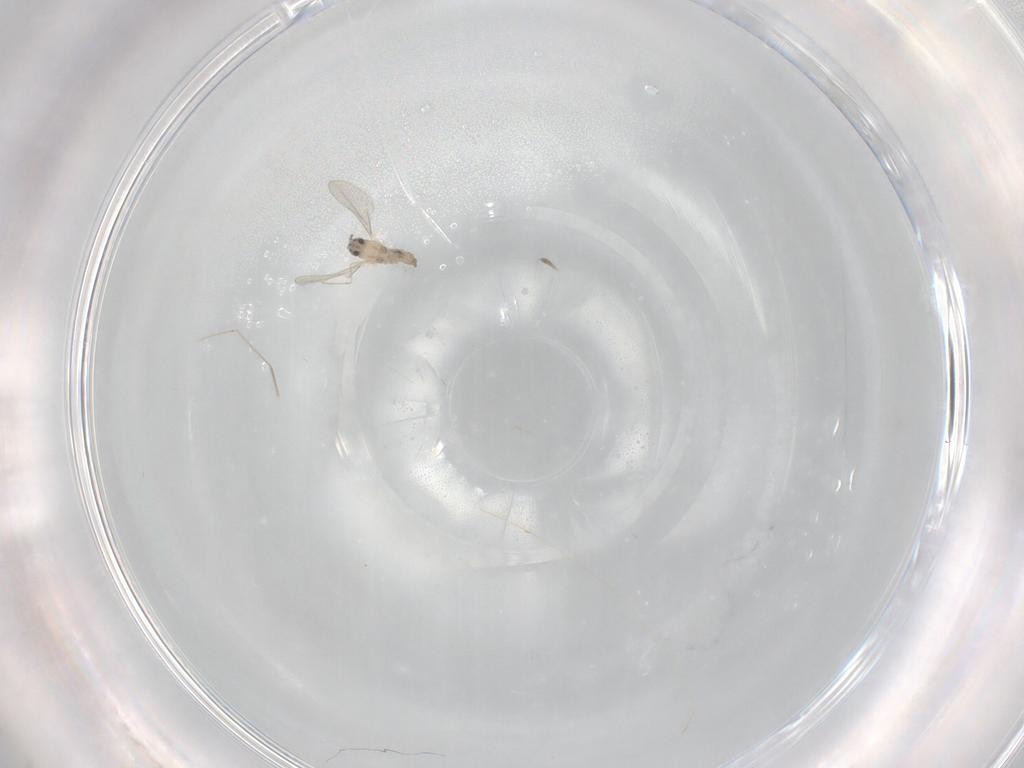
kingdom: Animalia
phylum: Arthropoda
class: Insecta
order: Diptera
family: Cecidomyiidae
